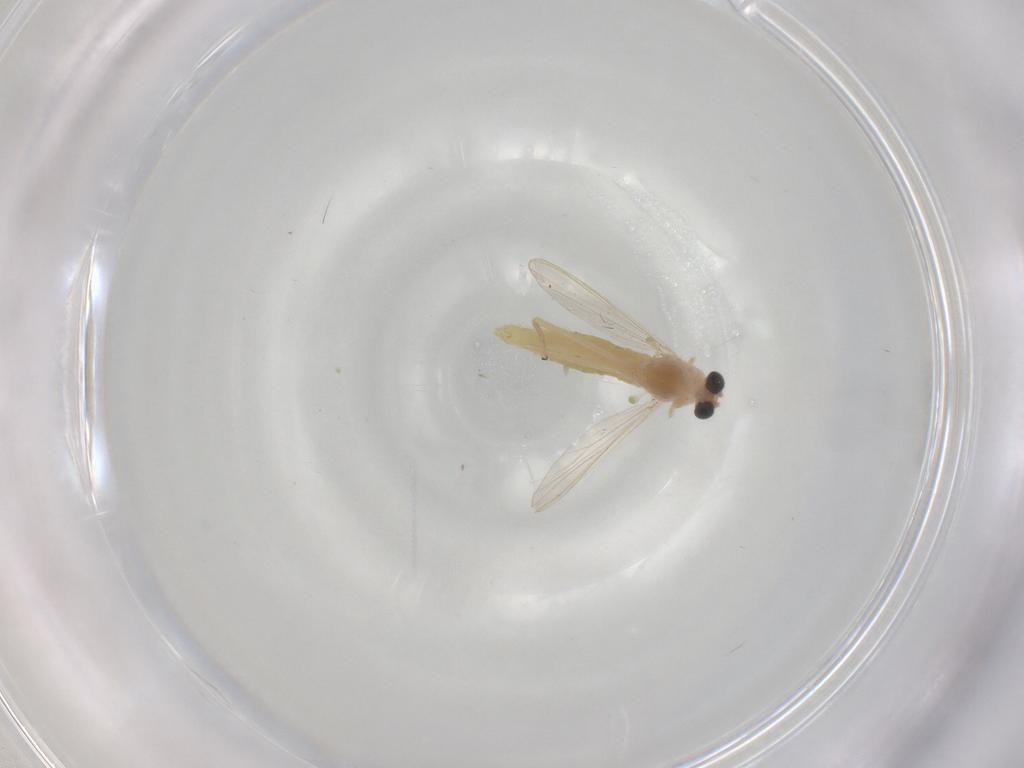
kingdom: Animalia
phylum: Arthropoda
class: Insecta
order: Diptera
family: Chironomidae
